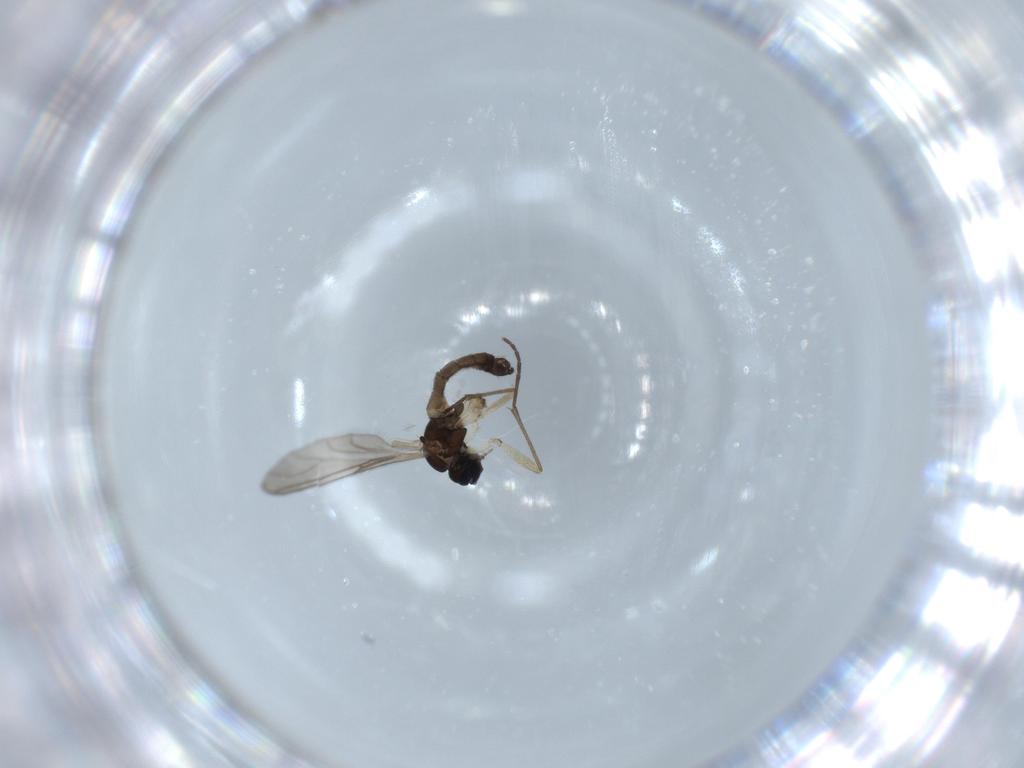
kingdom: Animalia
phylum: Arthropoda
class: Insecta
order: Diptera
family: Sciaridae
